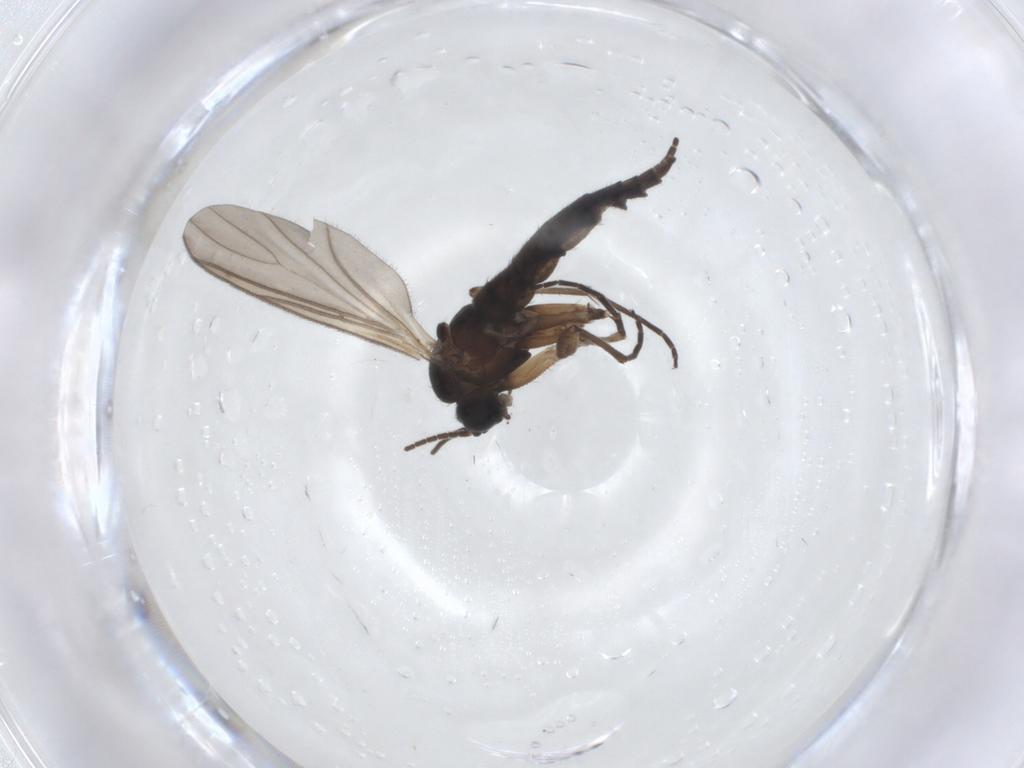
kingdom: Animalia
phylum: Arthropoda
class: Insecta
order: Diptera
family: Sciaridae
